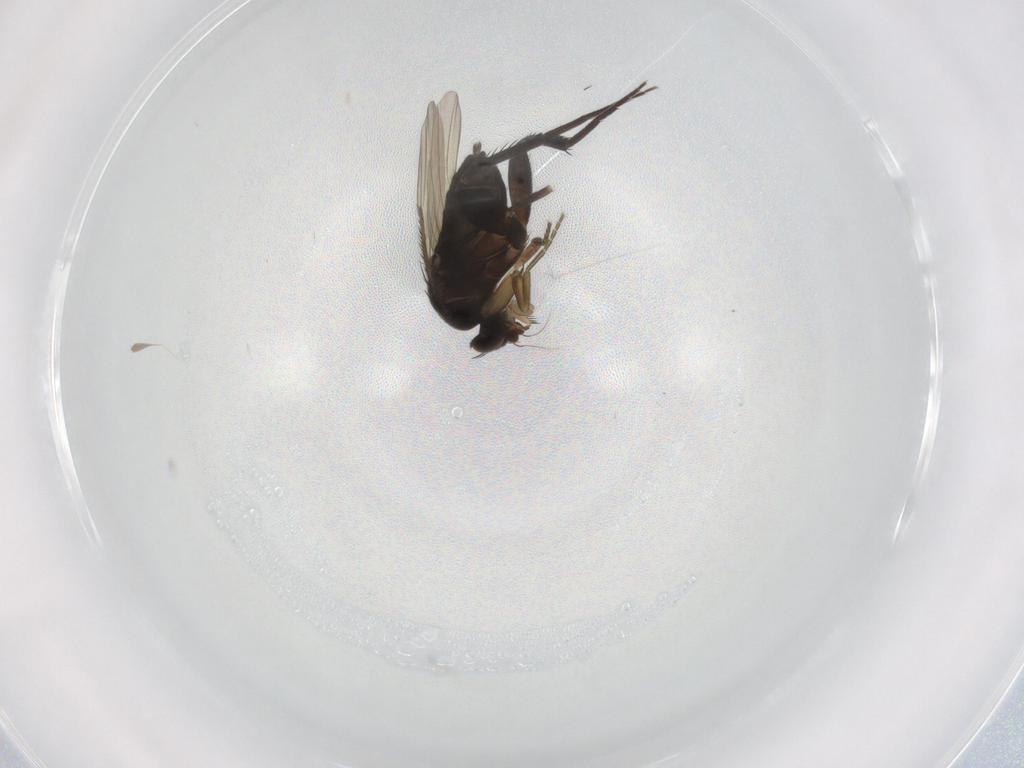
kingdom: Animalia
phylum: Arthropoda
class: Insecta
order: Diptera
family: Phoridae
